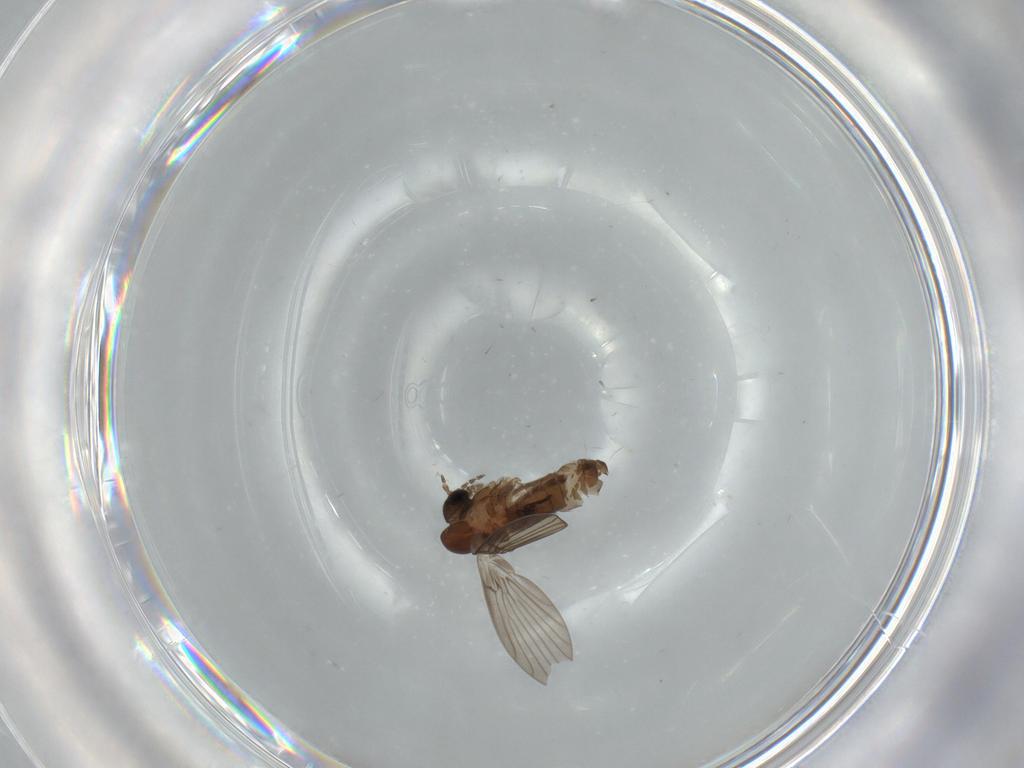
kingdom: Animalia
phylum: Arthropoda
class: Insecta
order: Diptera
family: Psychodidae
